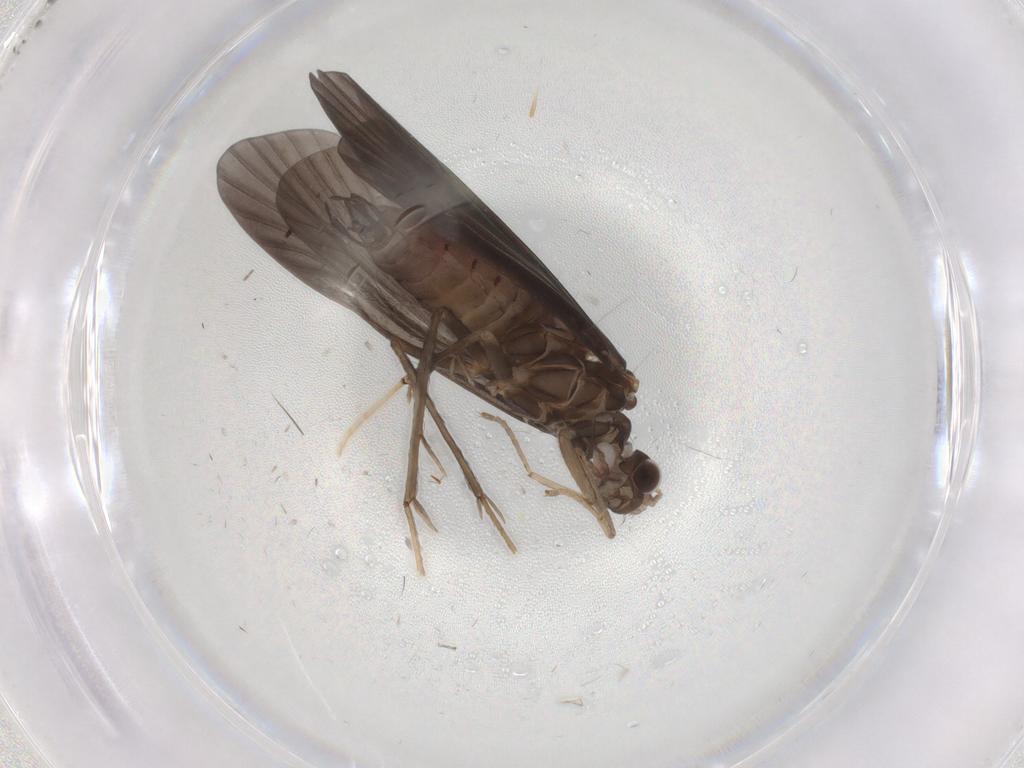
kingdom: Animalia
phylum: Arthropoda
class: Insecta
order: Trichoptera
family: Hydropsychidae
